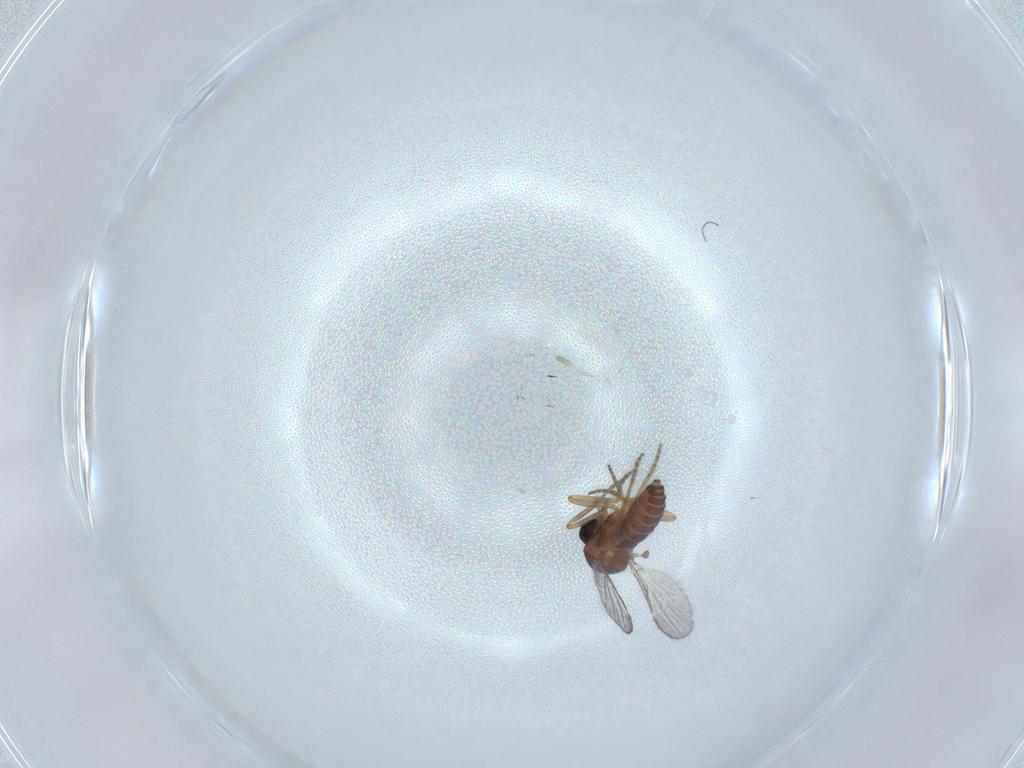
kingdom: Animalia
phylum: Arthropoda
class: Insecta
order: Diptera
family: Ceratopogonidae
